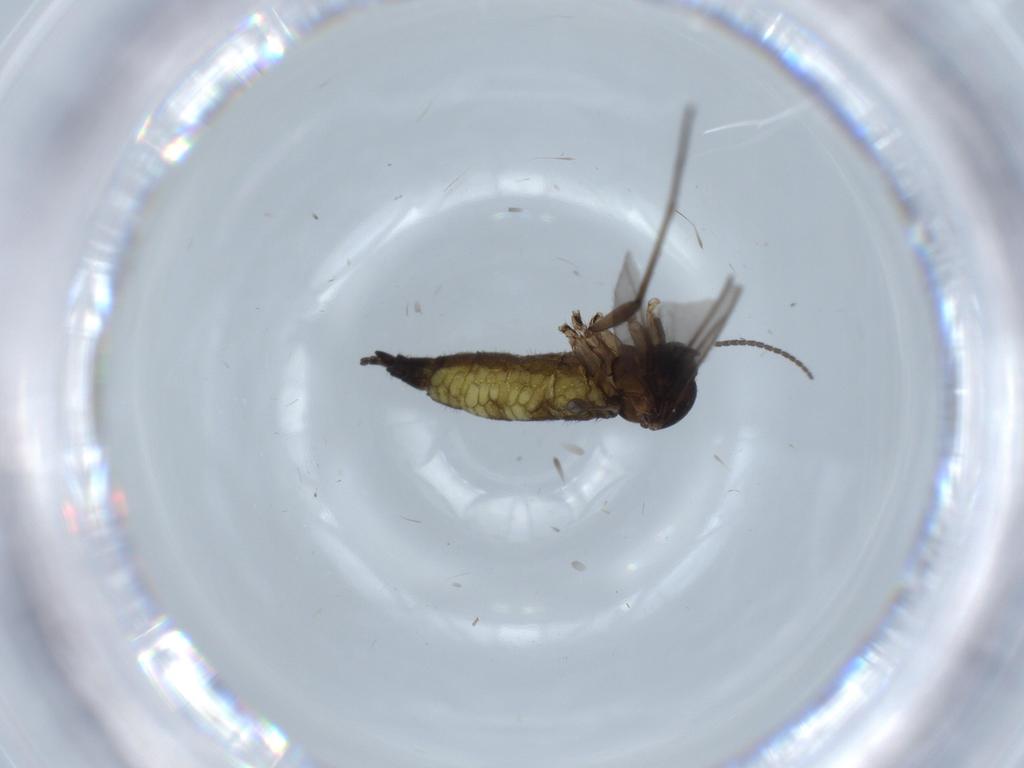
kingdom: Animalia
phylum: Arthropoda
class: Insecta
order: Diptera
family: Sciaridae
